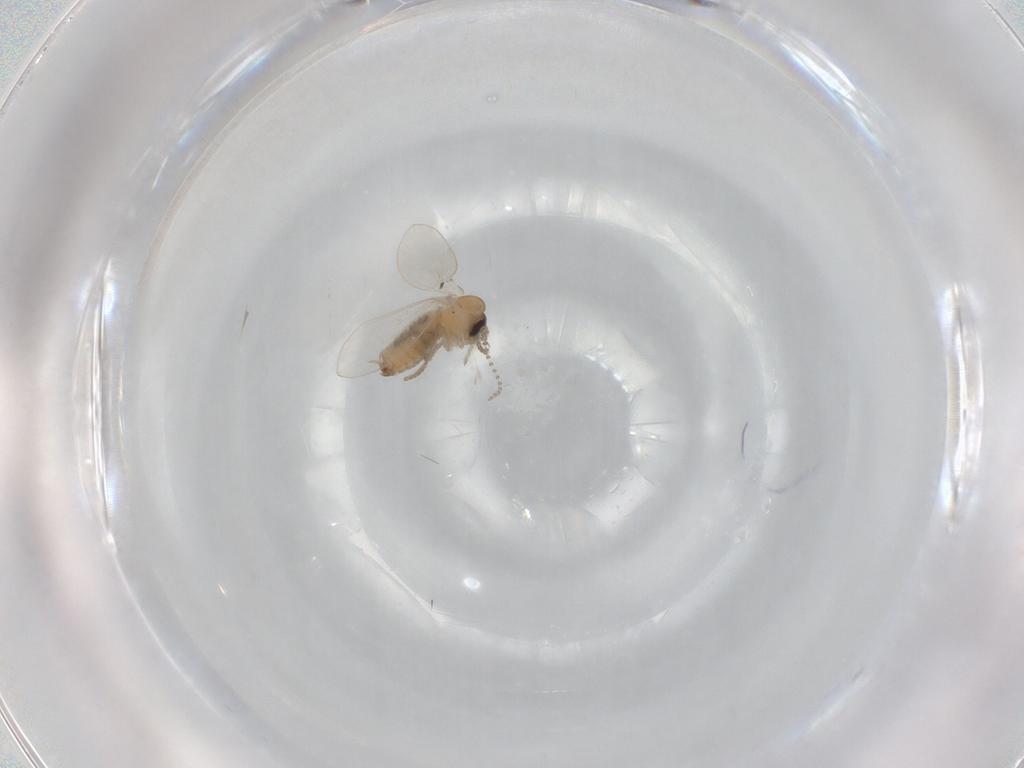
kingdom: Animalia
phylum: Arthropoda
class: Insecta
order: Diptera
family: Psychodidae
